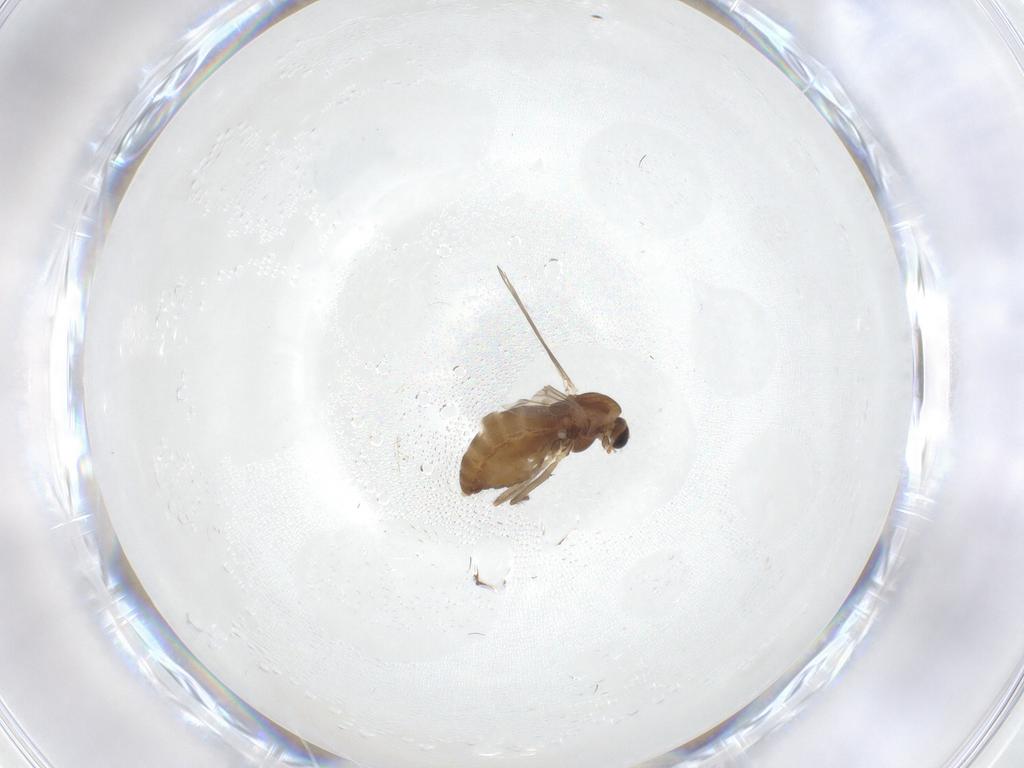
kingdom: Animalia
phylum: Arthropoda
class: Insecta
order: Diptera
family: Chironomidae
